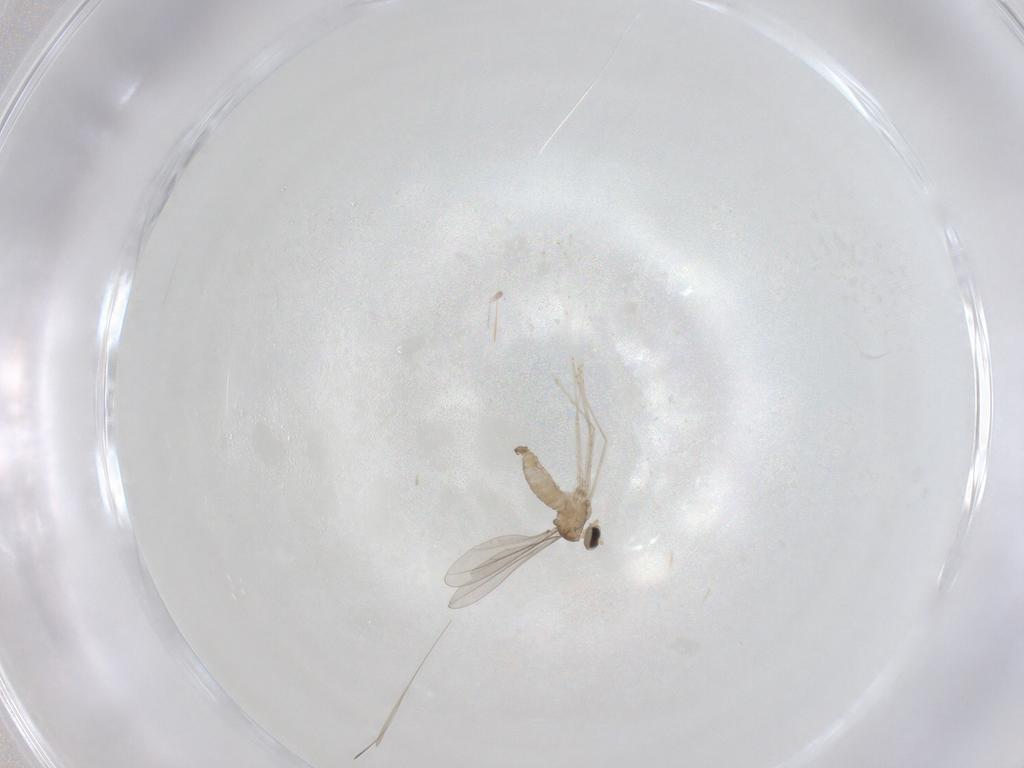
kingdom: Animalia
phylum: Arthropoda
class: Insecta
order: Diptera
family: Cecidomyiidae
